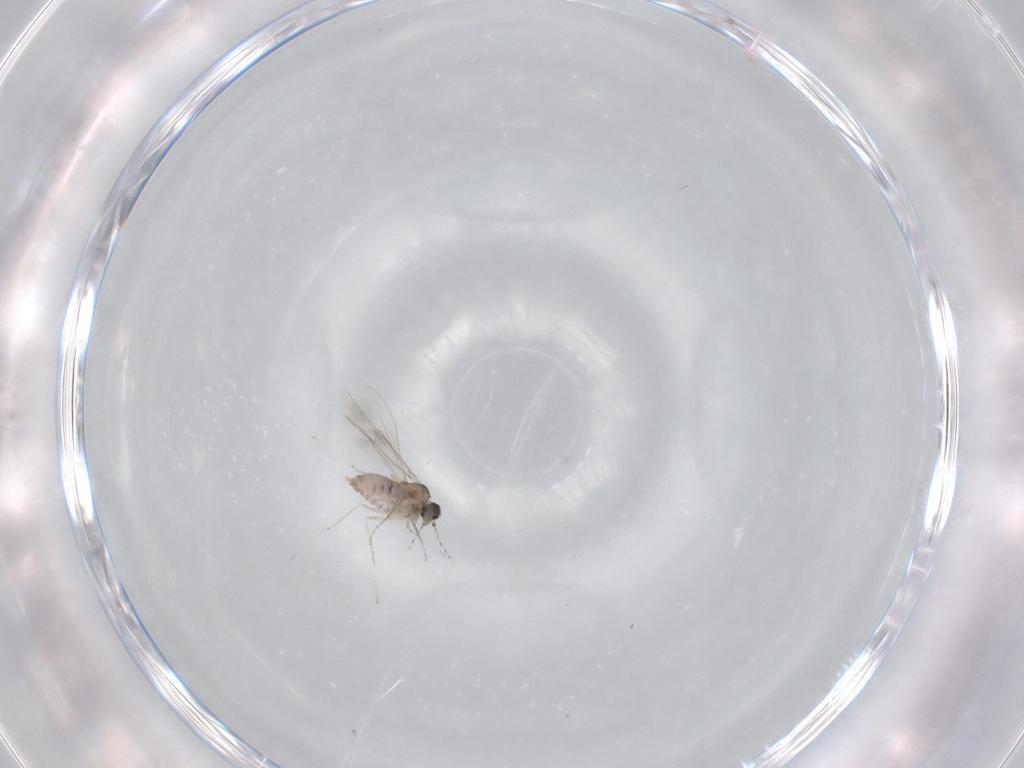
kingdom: Animalia
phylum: Arthropoda
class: Insecta
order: Diptera
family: Cecidomyiidae
